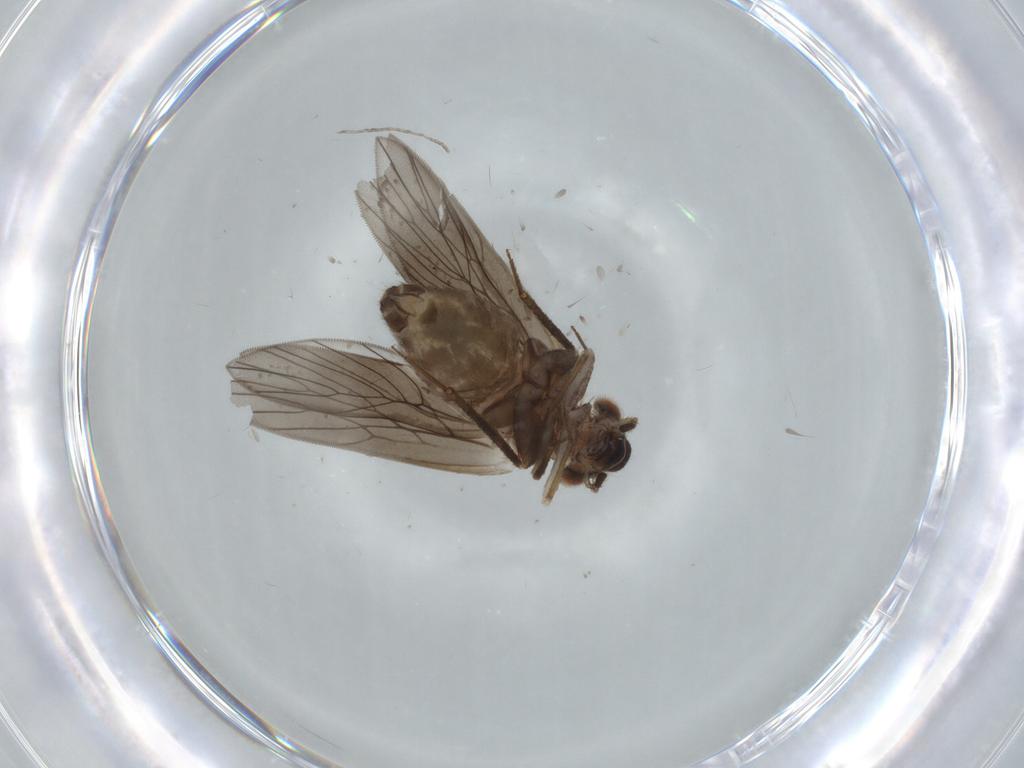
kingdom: Animalia
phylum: Arthropoda
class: Insecta
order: Psocodea
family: Lepidopsocidae
